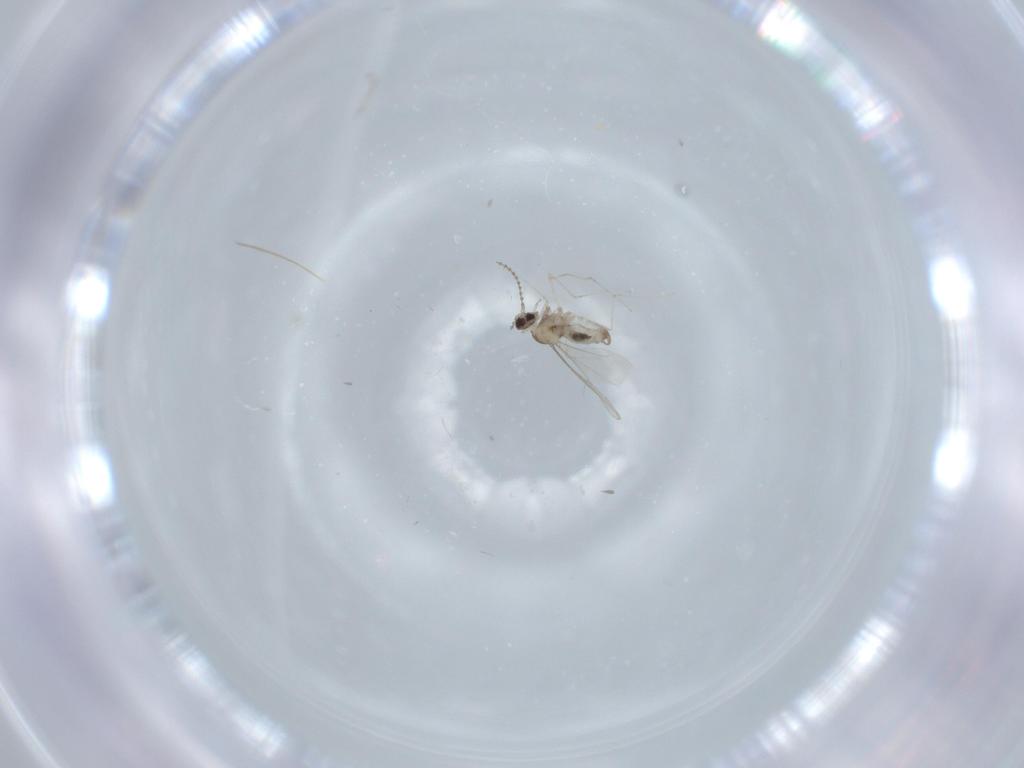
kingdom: Animalia
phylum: Arthropoda
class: Insecta
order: Diptera
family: Cecidomyiidae
